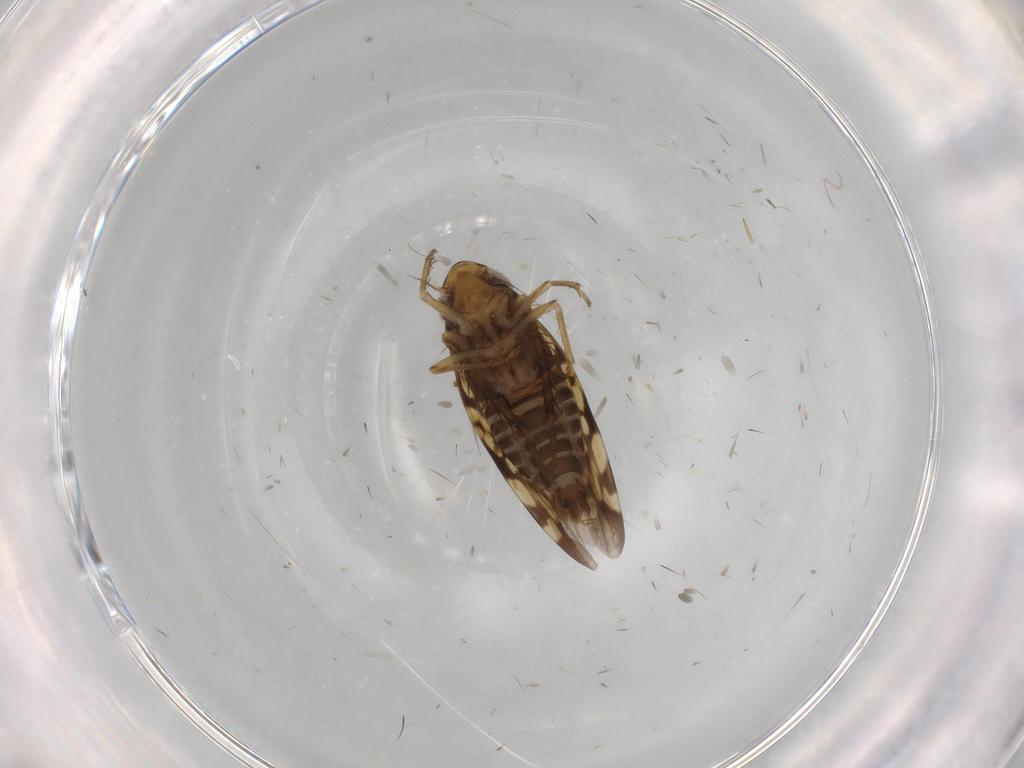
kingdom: Animalia
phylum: Arthropoda
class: Insecta
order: Hemiptera
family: Cicadellidae
